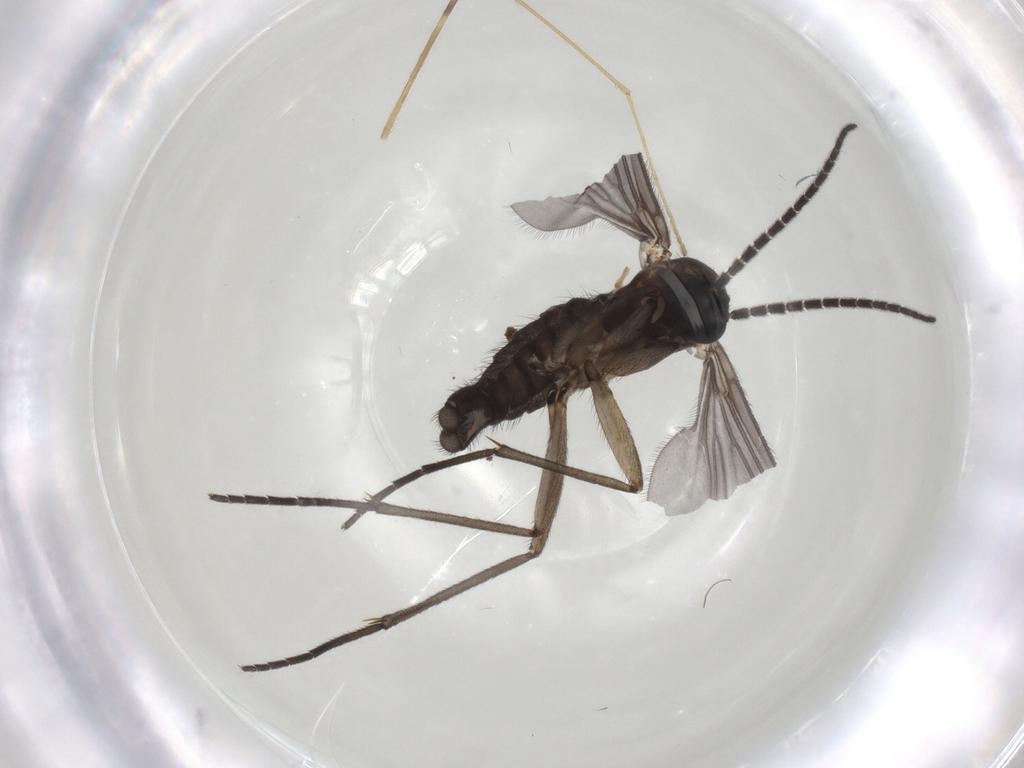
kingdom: Animalia
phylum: Arthropoda
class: Insecta
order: Diptera
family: Sciaridae
